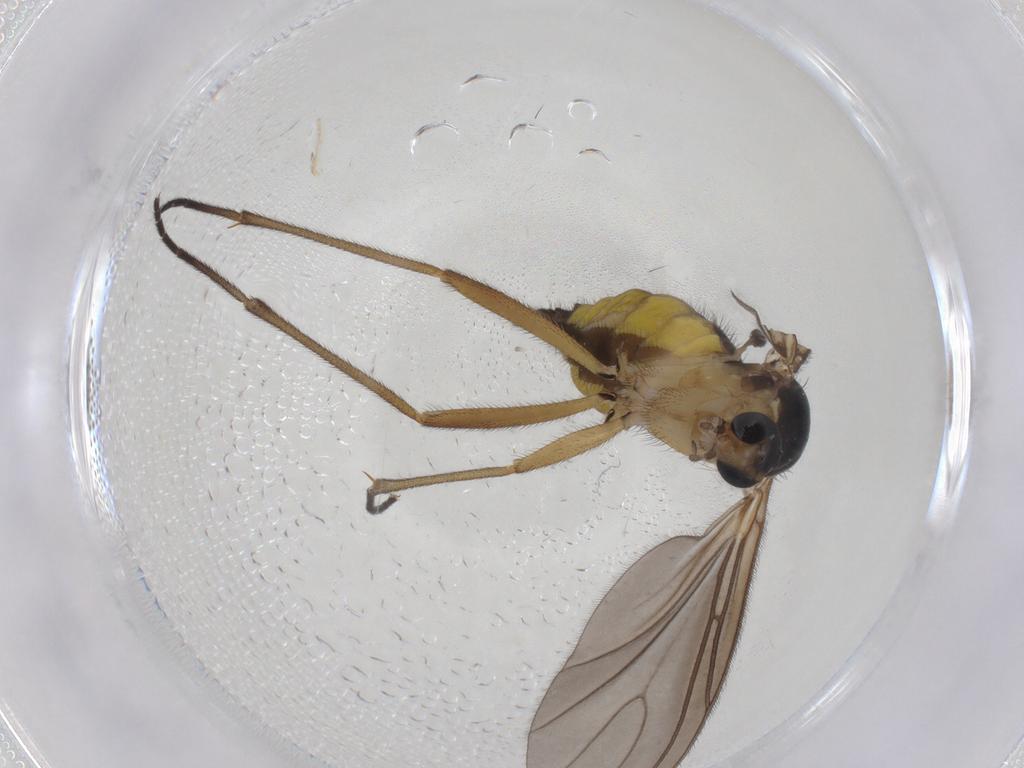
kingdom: Animalia
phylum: Arthropoda
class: Insecta
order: Diptera
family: Sciaridae
